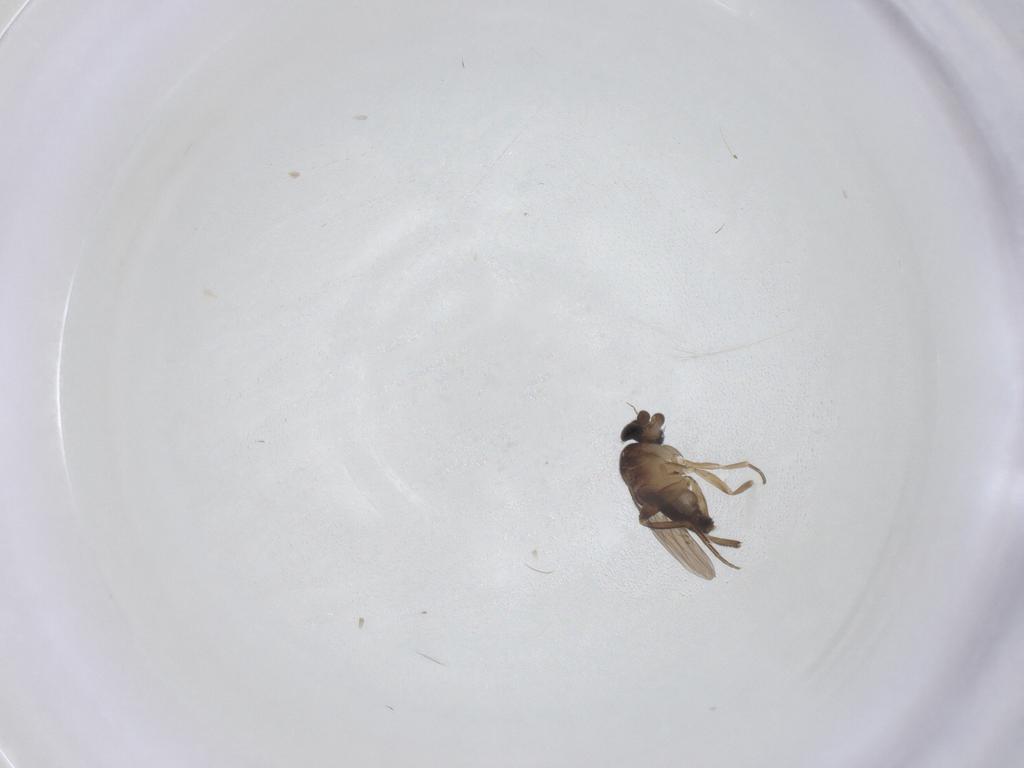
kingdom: Animalia
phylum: Arthropoda
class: Insecta
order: Diptera
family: Phoridae
